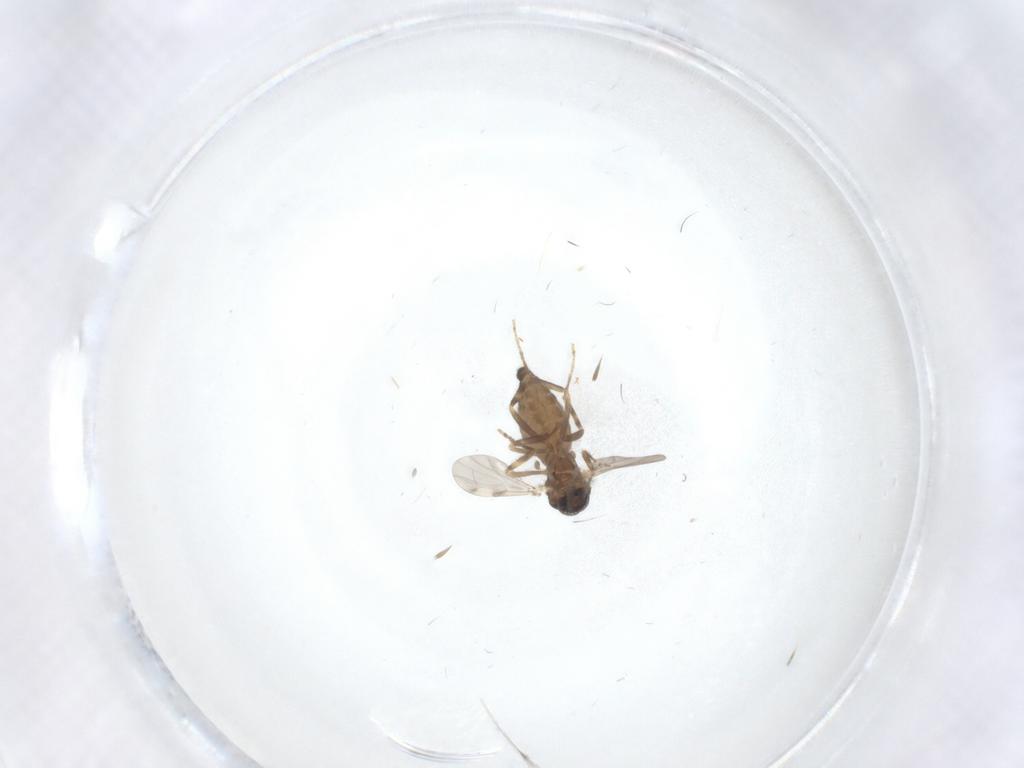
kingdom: Animalia
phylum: Arthropoda
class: Insecta
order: Diptera
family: Ceratopogonidae
